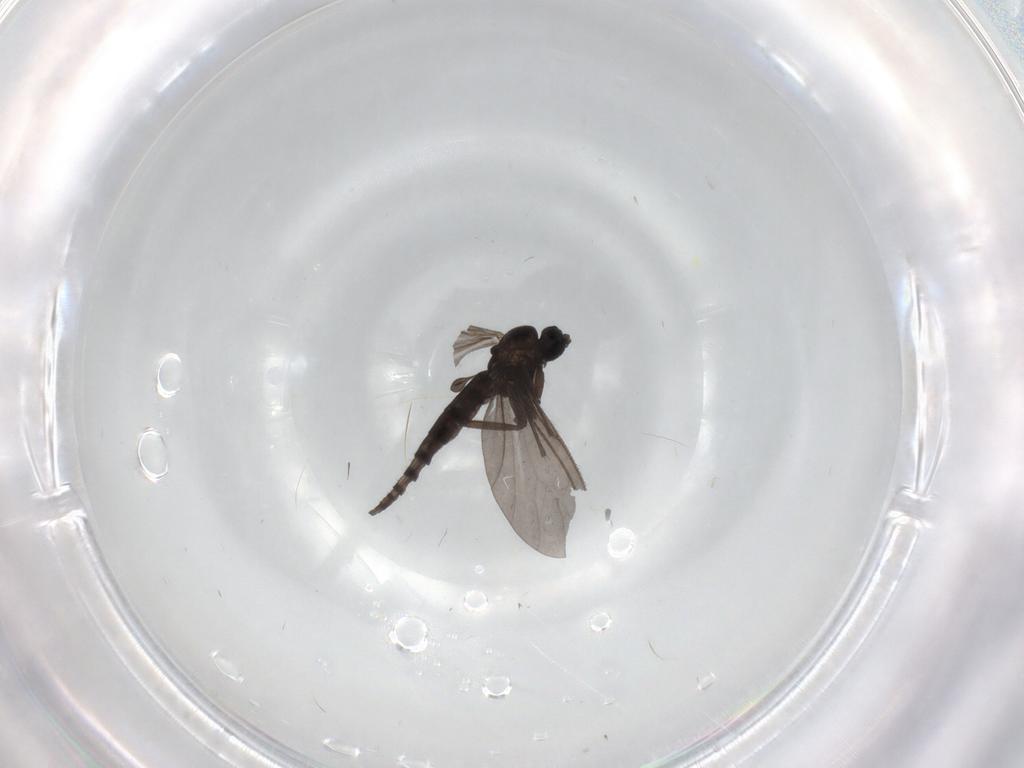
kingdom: Animalia
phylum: Arthropoda
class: Insecta
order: Diptera
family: Sciaridae
